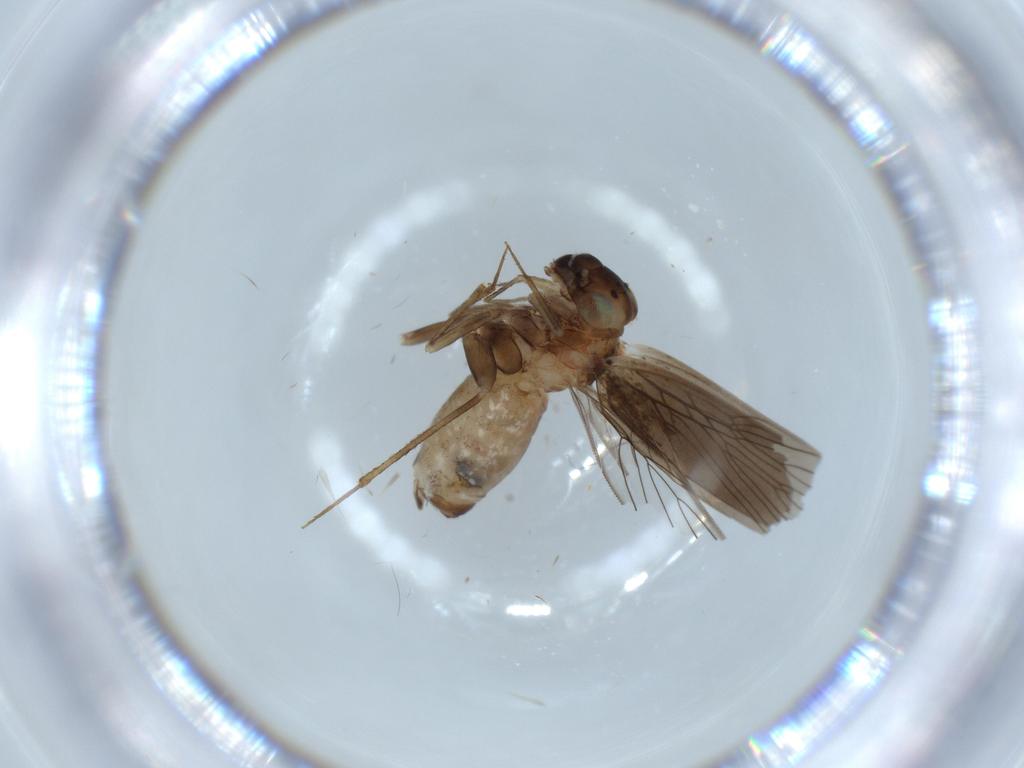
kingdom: Animalia
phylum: Arthropoda
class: Insecta
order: Psocodea
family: Lepidopsocidae
